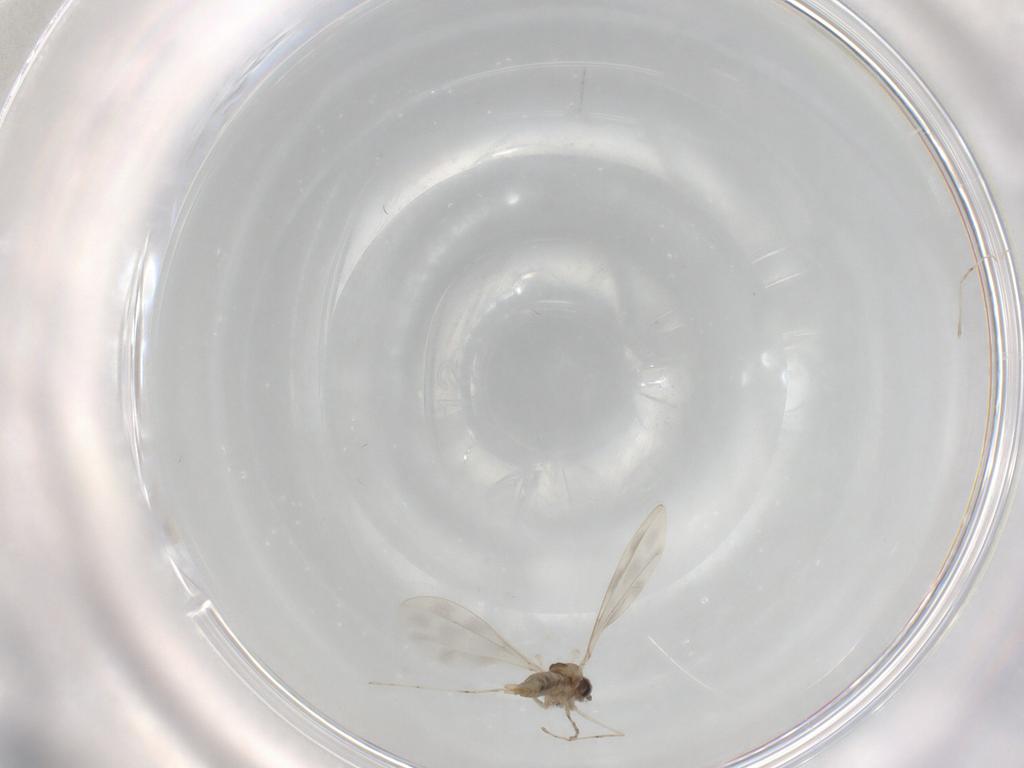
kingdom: Animalia
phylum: Arthropoda
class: Insecta
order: Diptera
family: Cecidomyiidae
